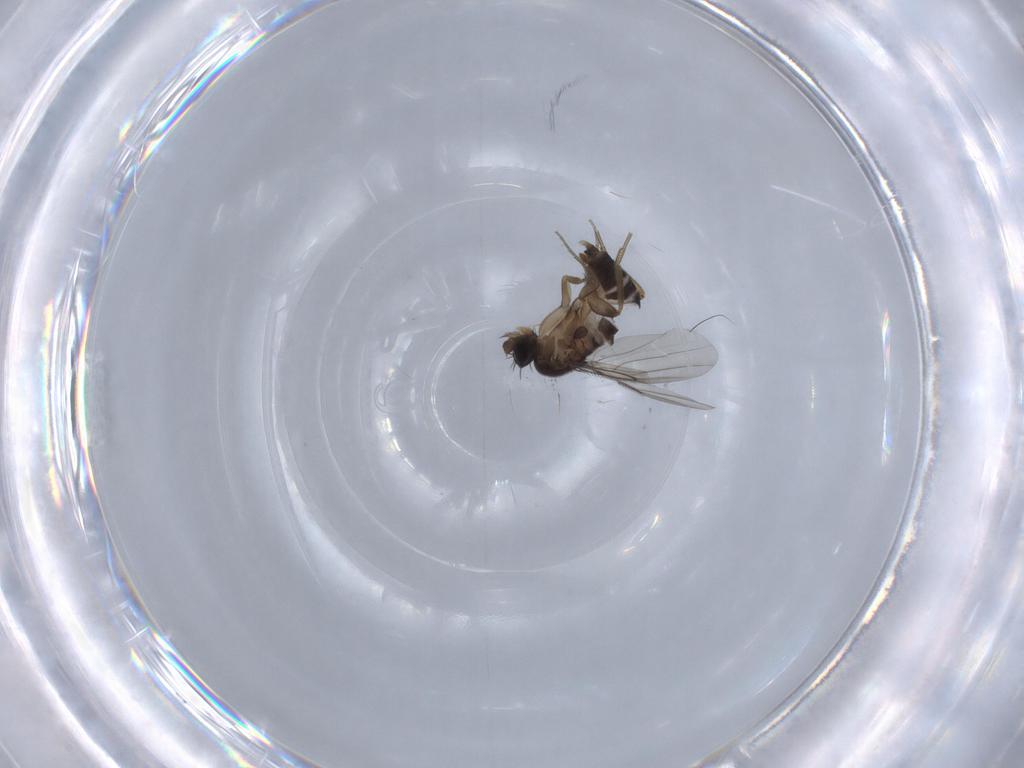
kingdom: Animalia
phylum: Arthropoda
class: Insecta
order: Diptera
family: Phoridae
